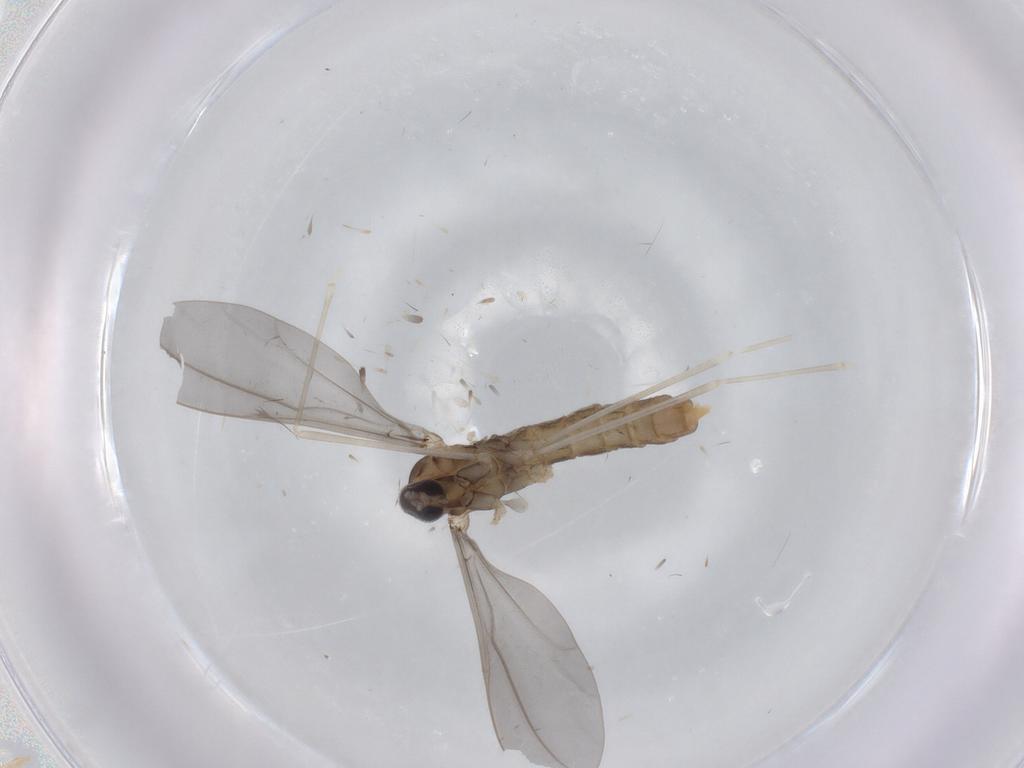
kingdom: Animalia
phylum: Arthropoda
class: Insecta
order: Diptera
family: Cecidomyiidae
